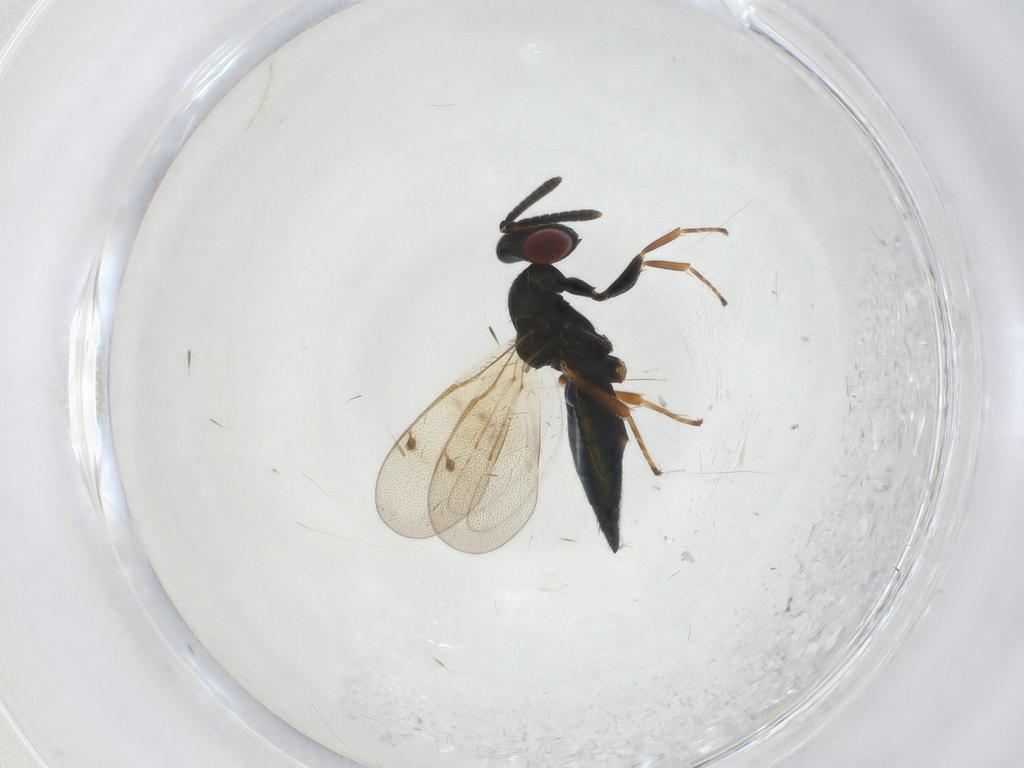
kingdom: Animalia
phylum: Arthropoda
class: Insecta
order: Hymenoptera
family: Pteromalidae
